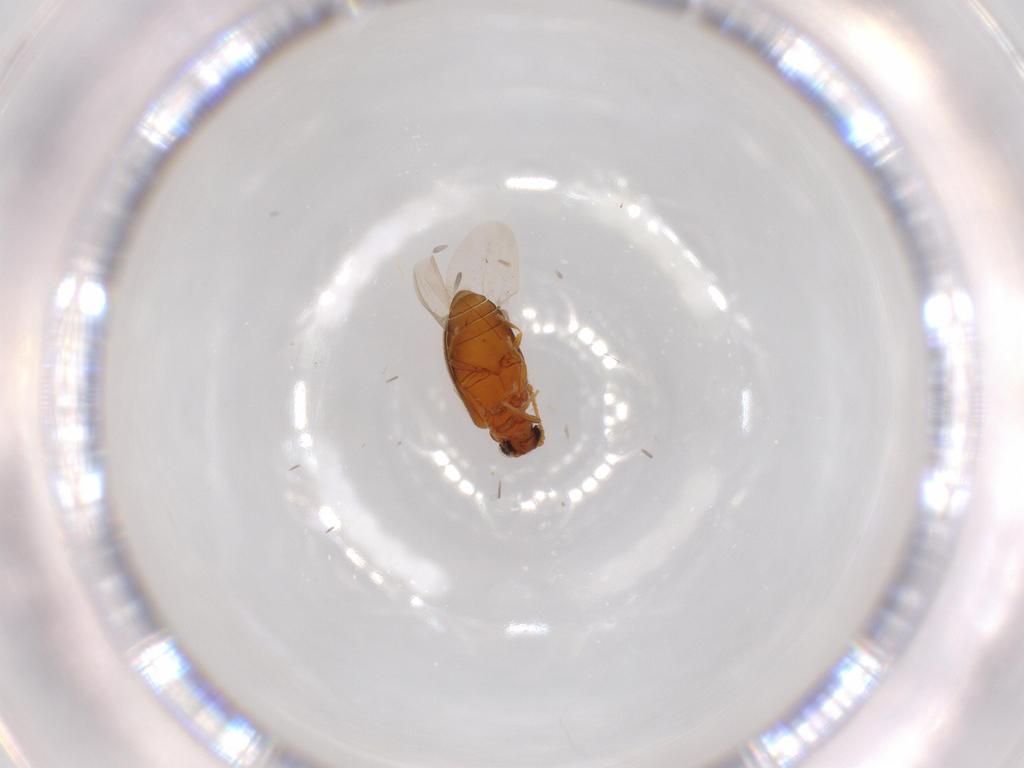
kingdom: Animalia
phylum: Arthropoda
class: Insecta
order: Coleoptera
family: Aderidae
